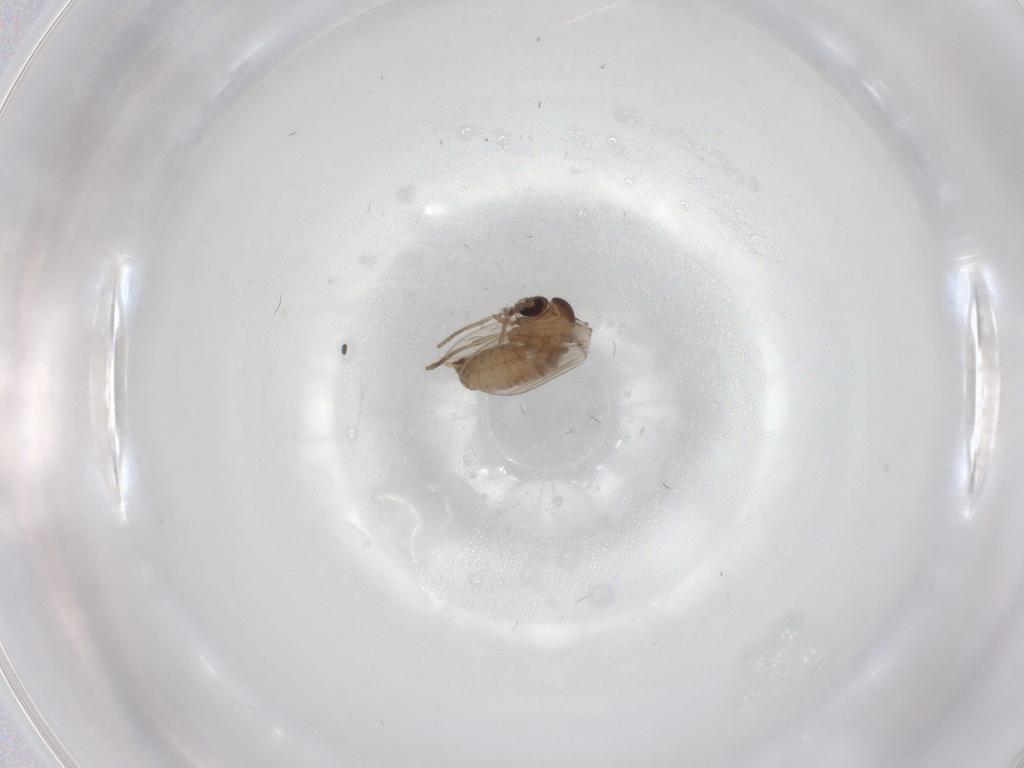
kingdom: Animalia
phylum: Arthropoda
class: Insecta
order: Diptera
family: Psychodidae
